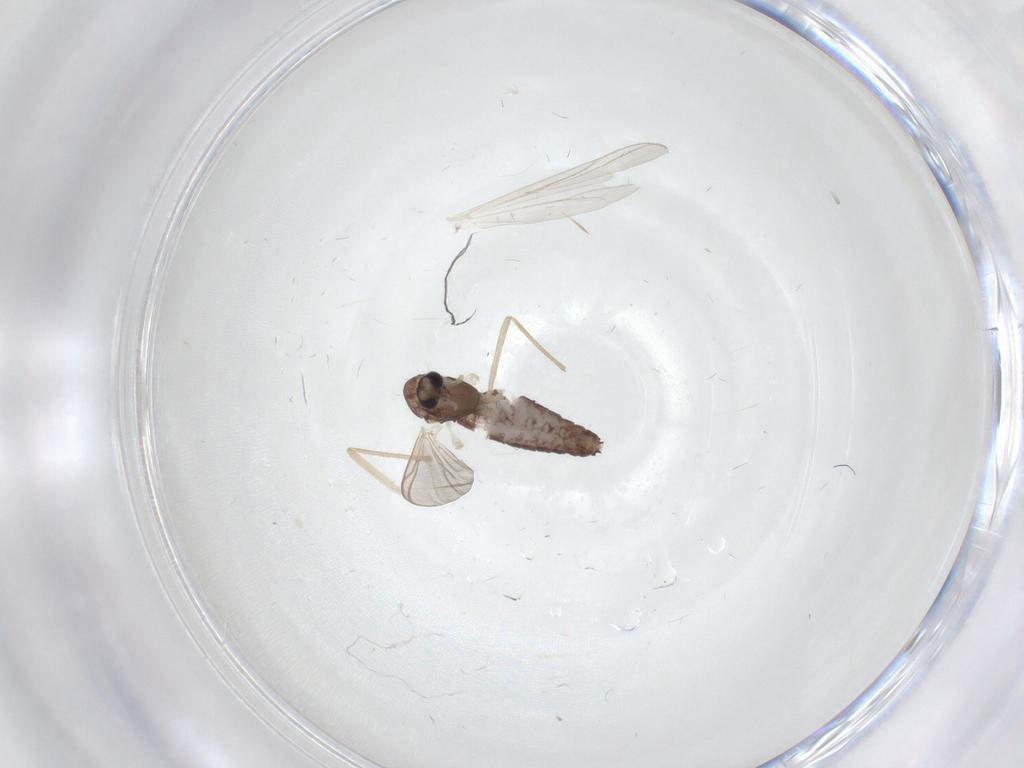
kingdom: Animalia
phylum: Arthropoda
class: Insecta
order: Diptera
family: Chironomidae
